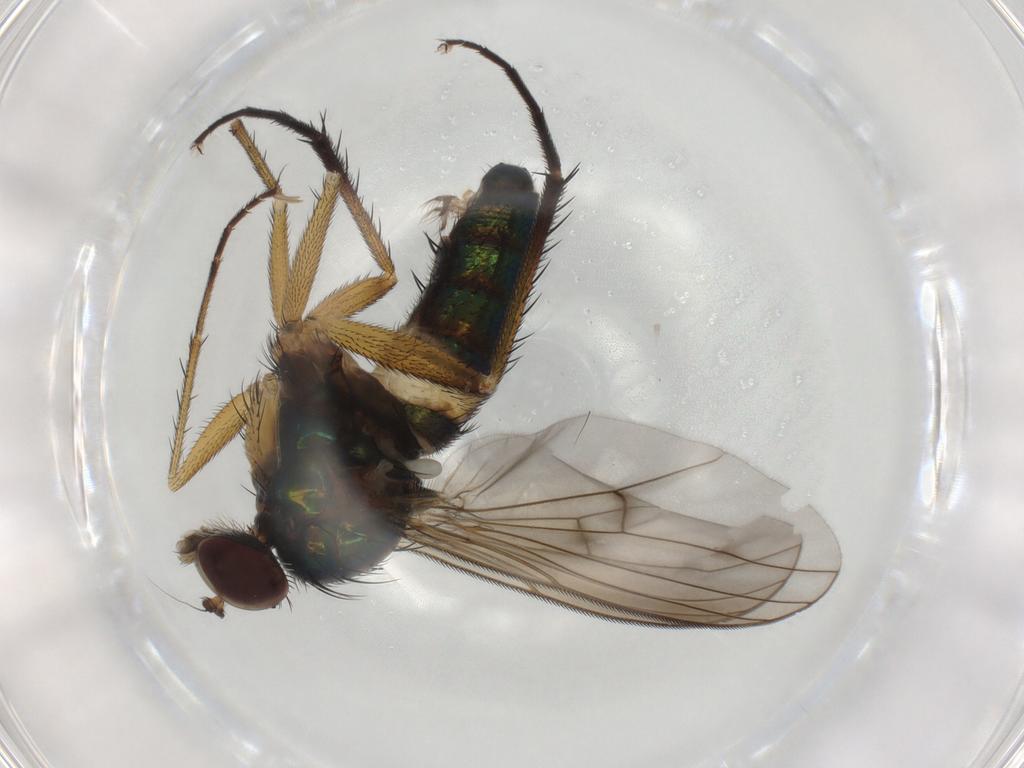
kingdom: Animalia
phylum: Arthropoda
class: Insecta
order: Diptera
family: Dolichopodidae
